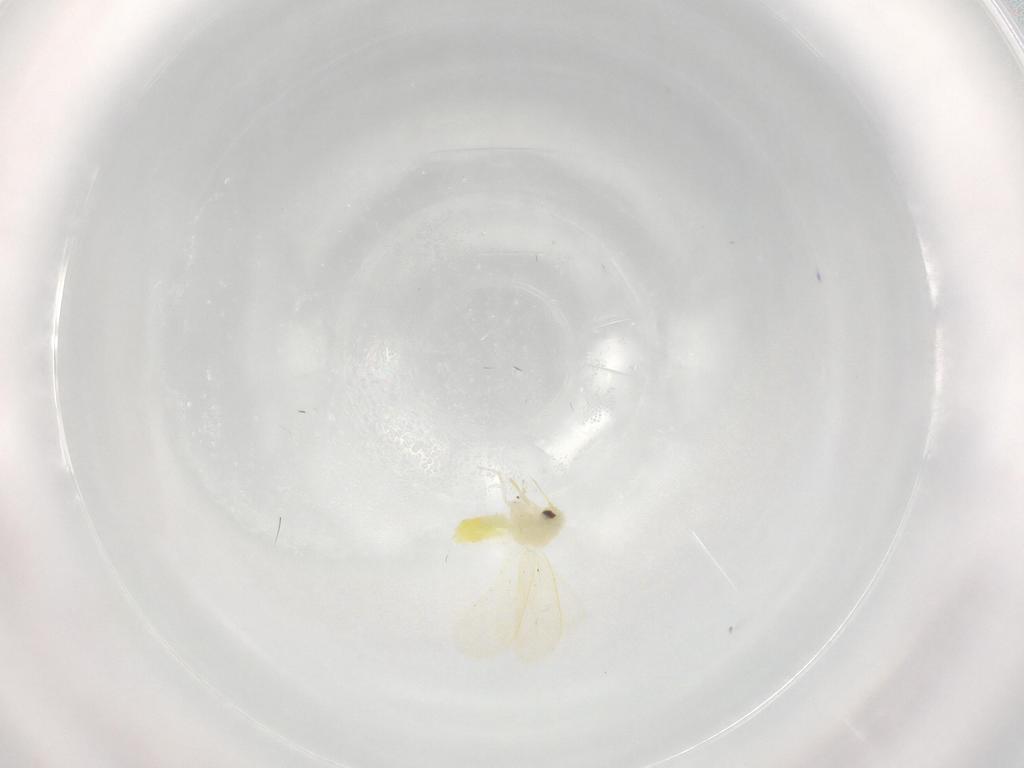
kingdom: Animalia
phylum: Arthropoda
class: Insecta
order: Hemiptera
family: Aleyrodidae
